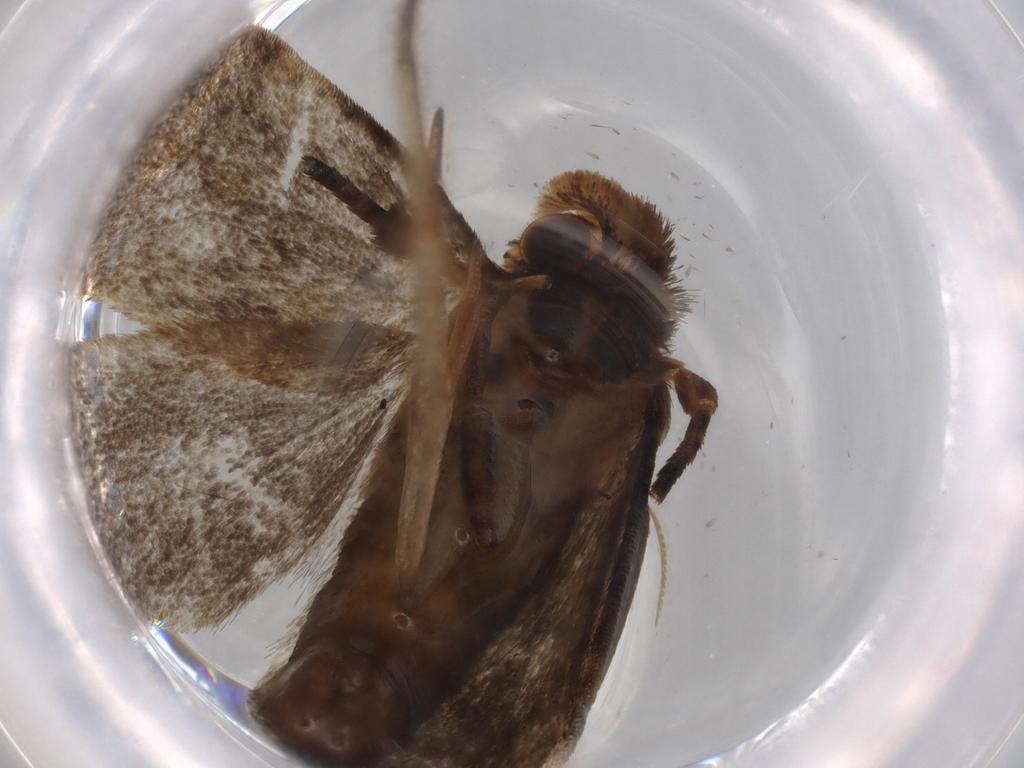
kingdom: Animalia
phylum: Arthropoda
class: Insecta
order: Lepidoptera
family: Tineidae
